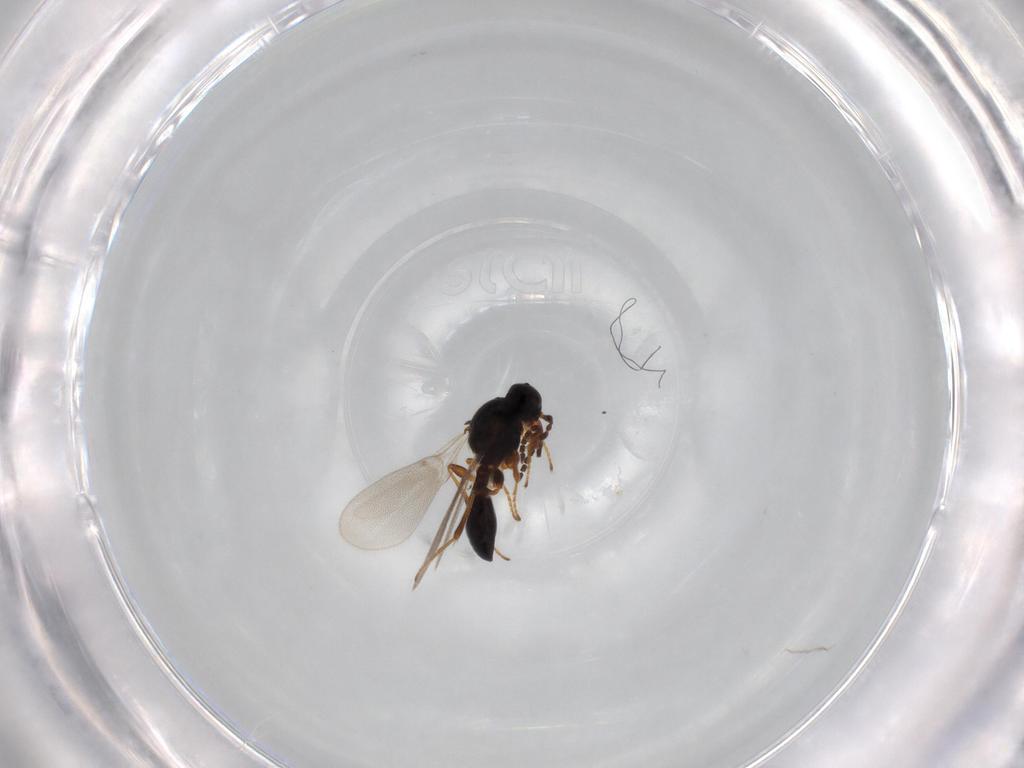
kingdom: Animalia
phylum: Arthropoda
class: Insecta
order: Hymenoptera
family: Platygastridae
